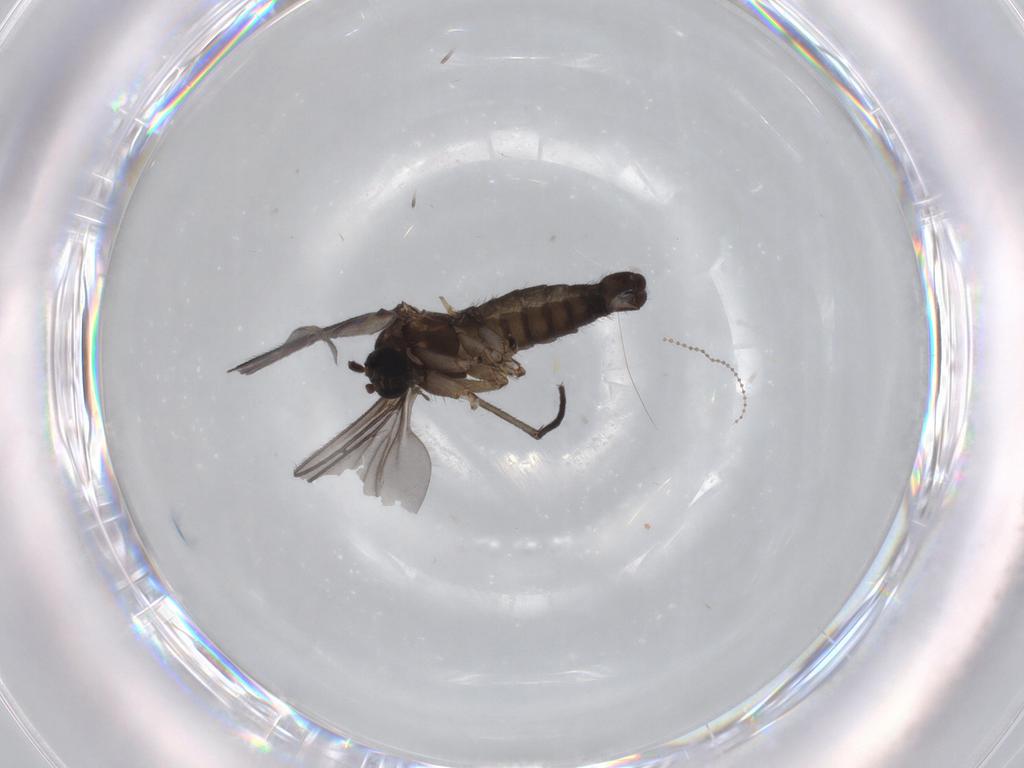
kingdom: Animalia
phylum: Arthropoda
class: Insecta
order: Diptera
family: Sciaridae
